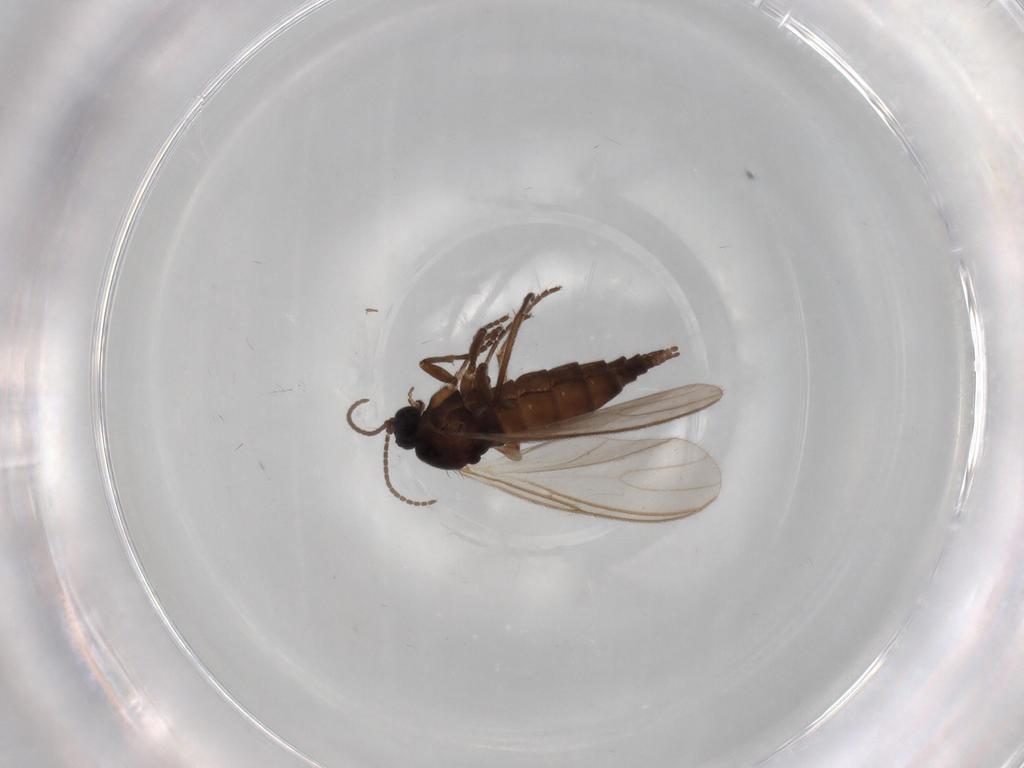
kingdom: Animalia
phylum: Arthropoda
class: Insecta
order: Diptera
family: Sciaridae
